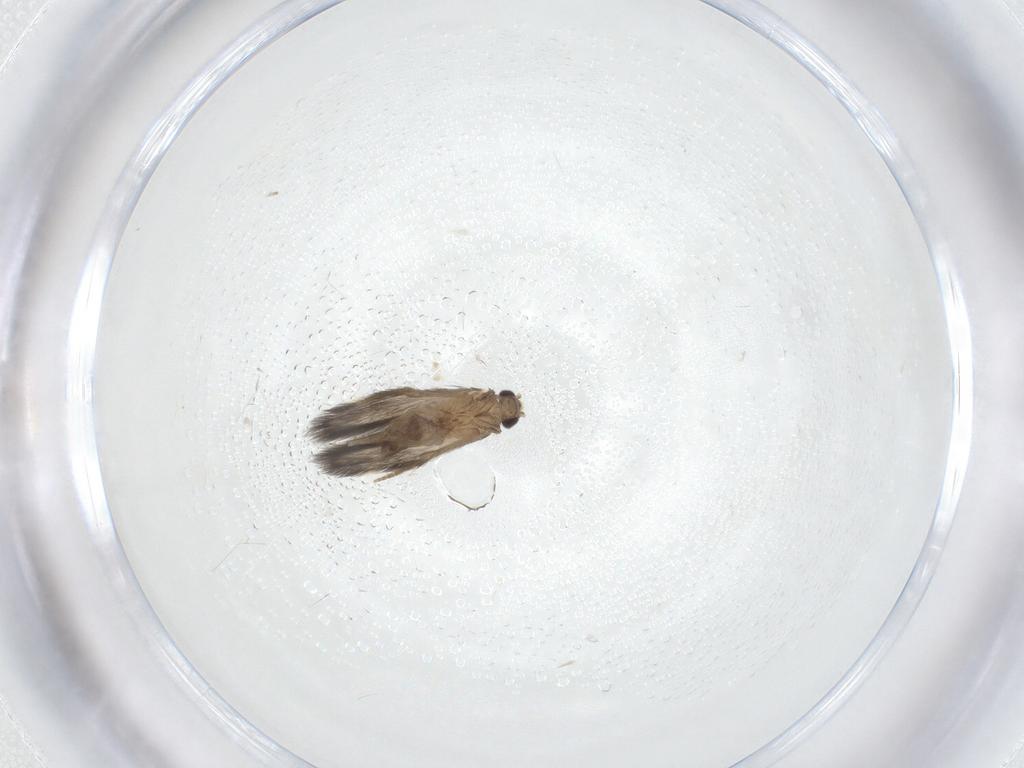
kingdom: Animalia
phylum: Arthropoda
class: Insecta
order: Trichoptera
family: Hydroptilidae
